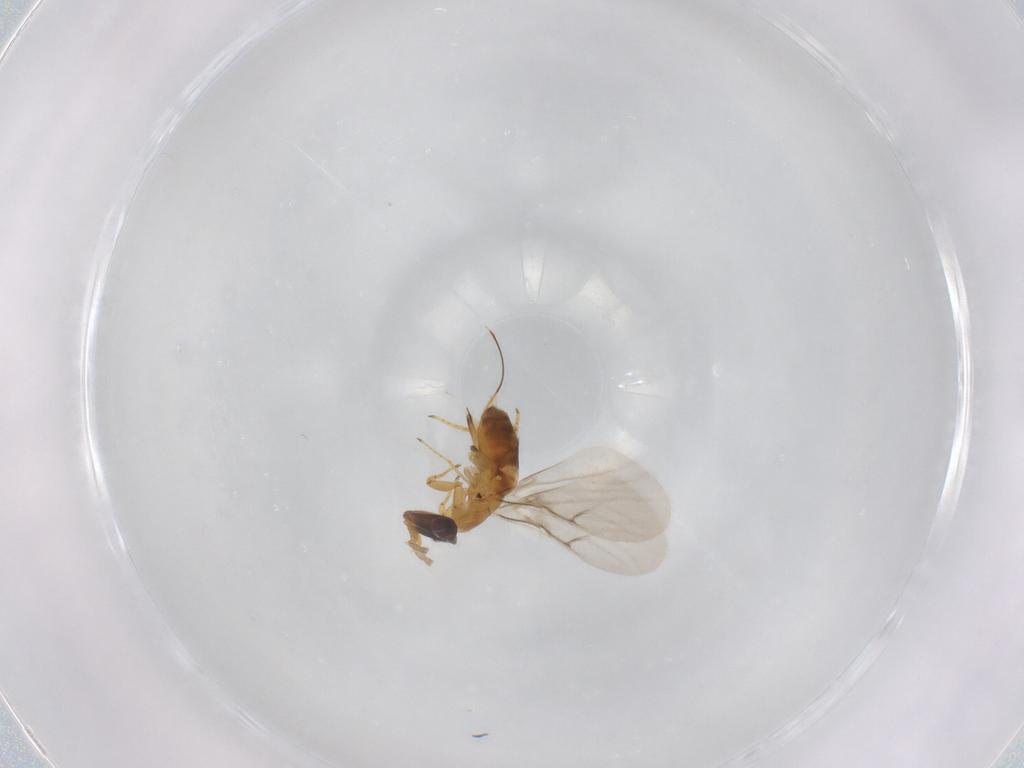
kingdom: Animalia
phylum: Arthropoda
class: Insecta
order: Hymenoptera
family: Agaonidae
